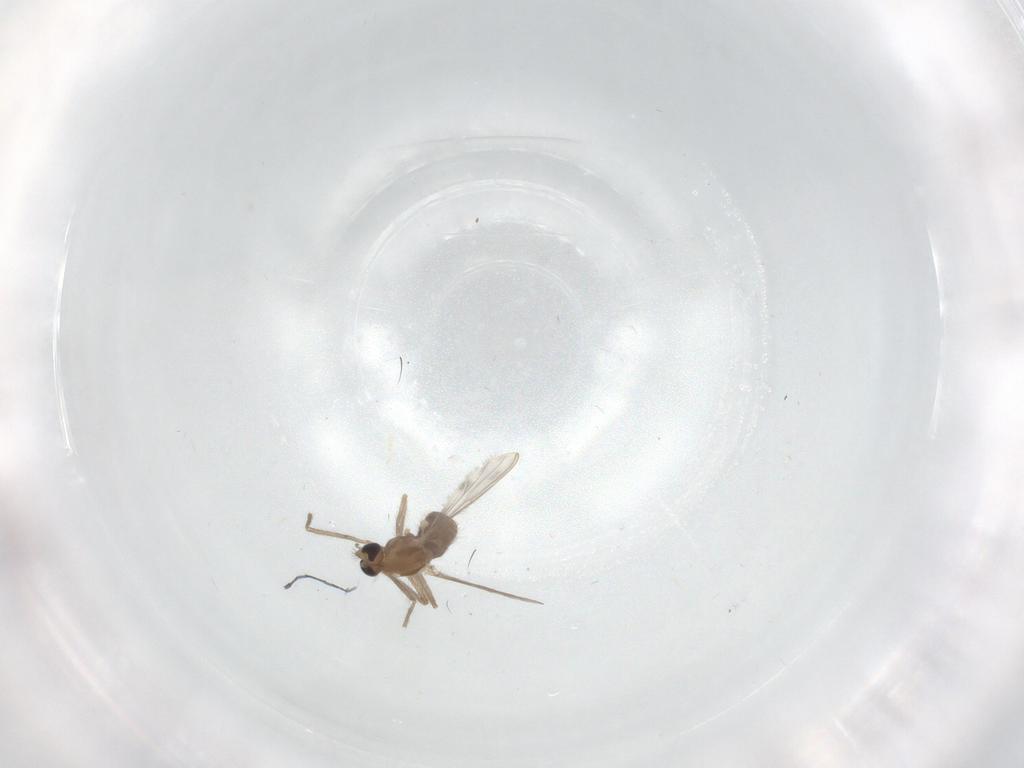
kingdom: Animalia
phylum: Arthropoda
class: Insecta
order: Diptera
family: Chironomidae
